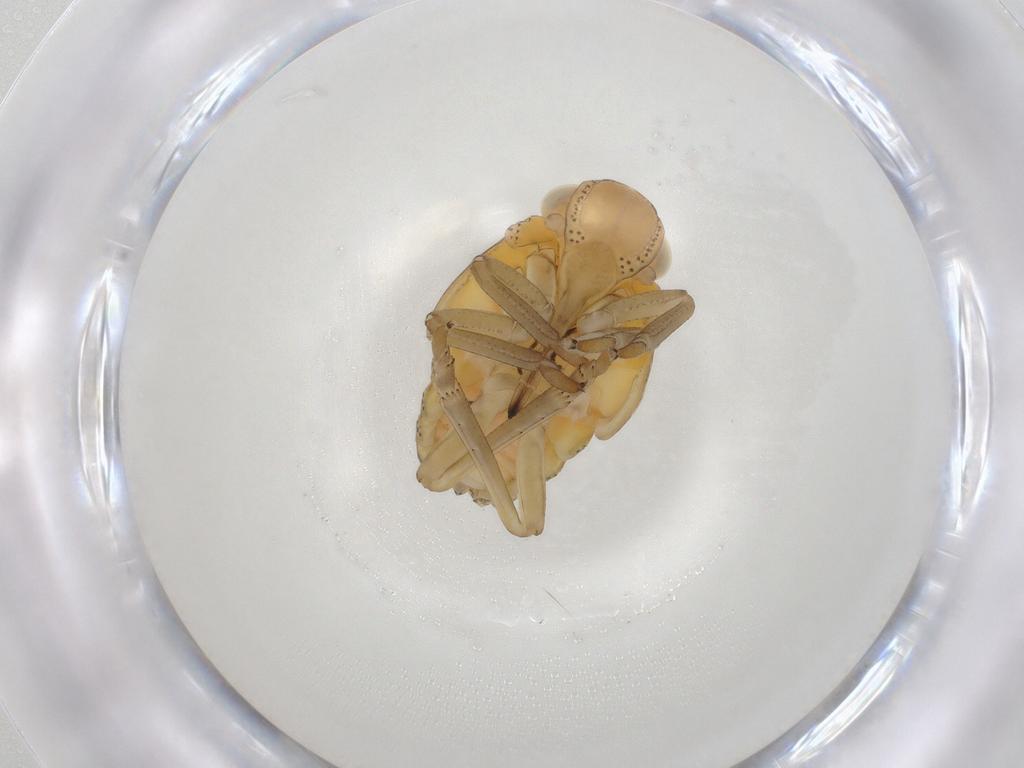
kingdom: Animalia
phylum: Arthropoda
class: Insecta
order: Hemiptera
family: Tropiduchidae
